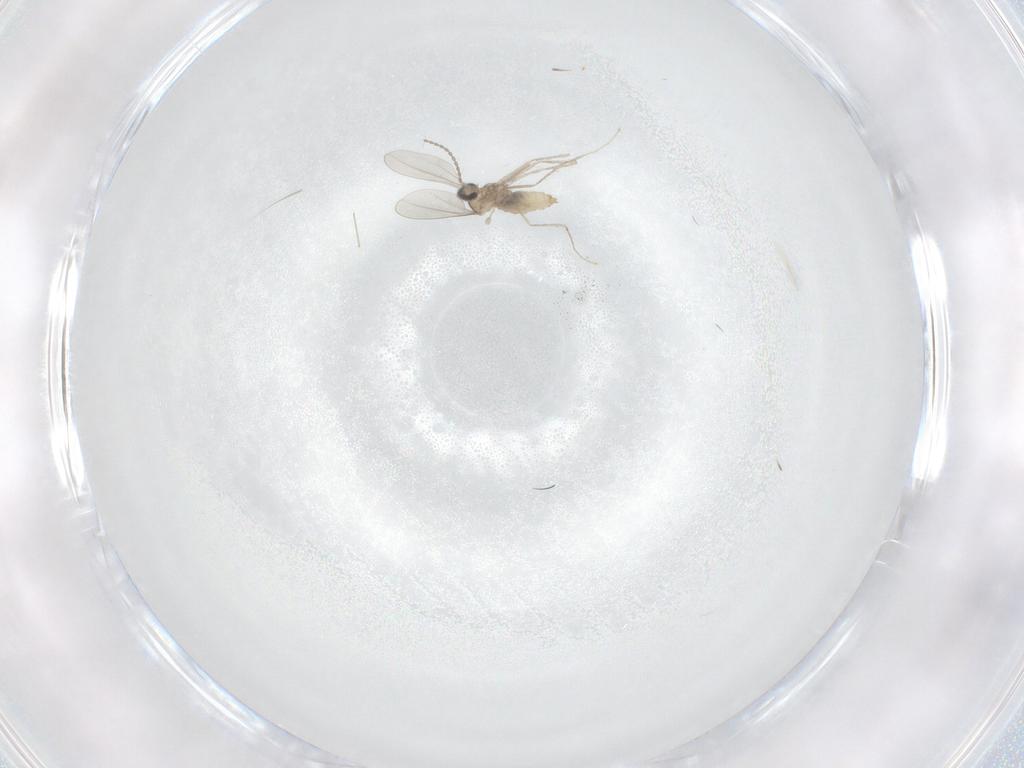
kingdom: Animalia
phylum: Arthropoda
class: Insecta
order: Diptera
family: Cecidomyiidae
